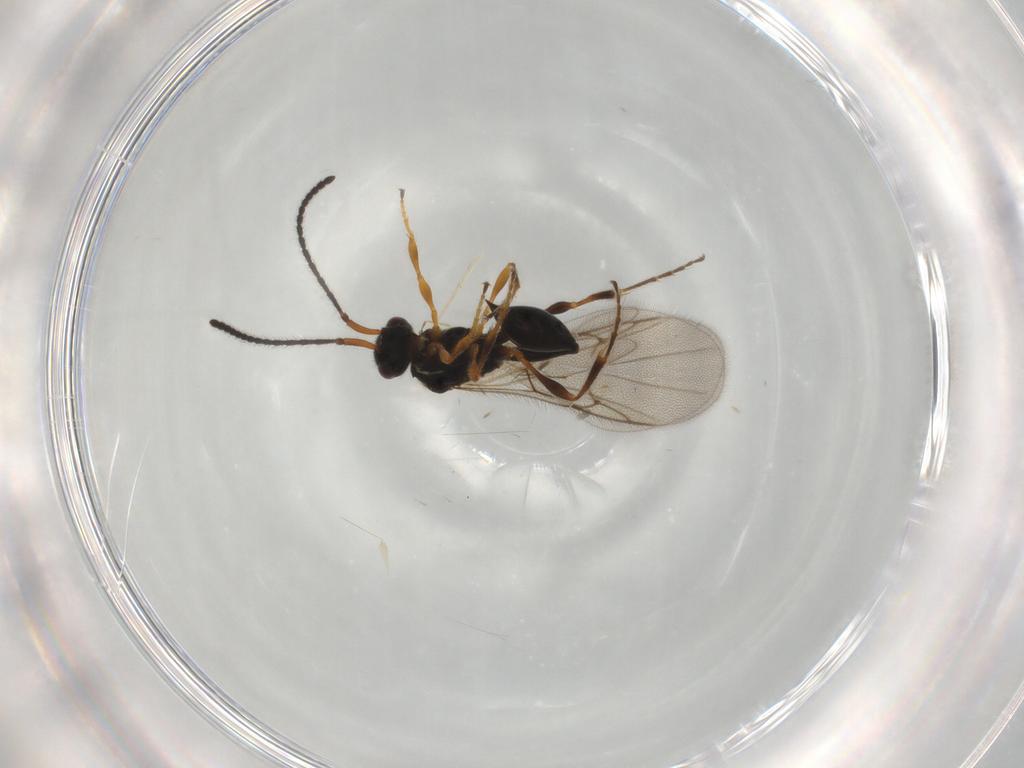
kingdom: Animalia
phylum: Arthropoda
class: Insecta
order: Hymenoptera
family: Diapriidae
